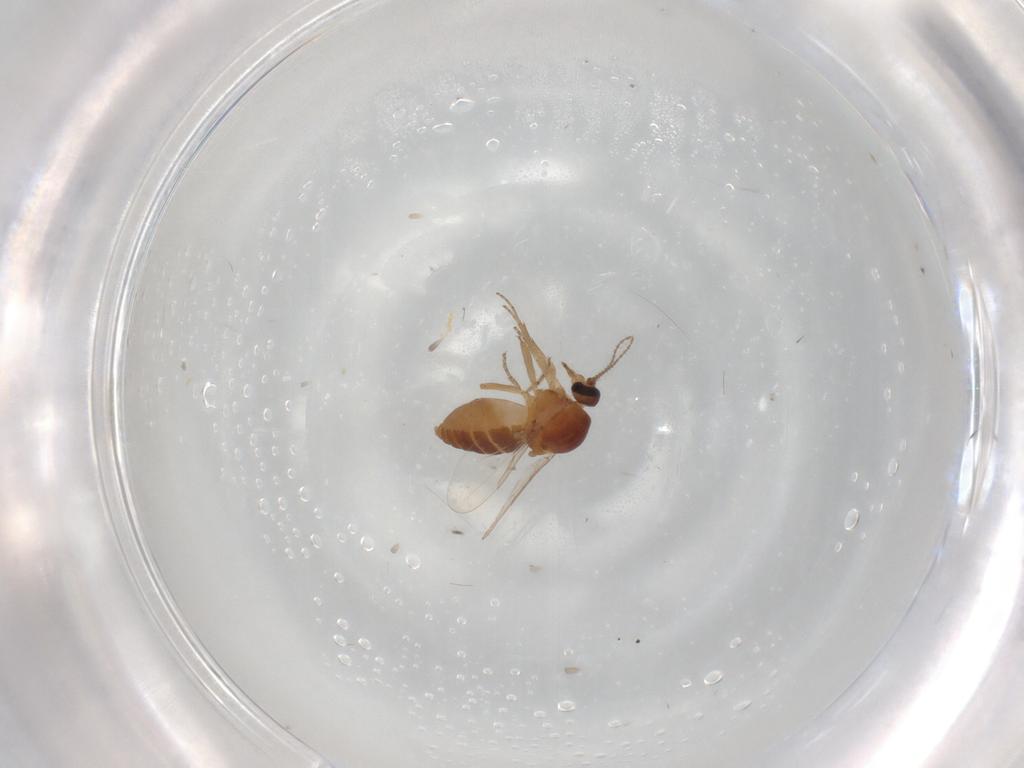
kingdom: Animalia
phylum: Arthropoda
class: Insecta
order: Diptera
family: Ceratopogonidae
